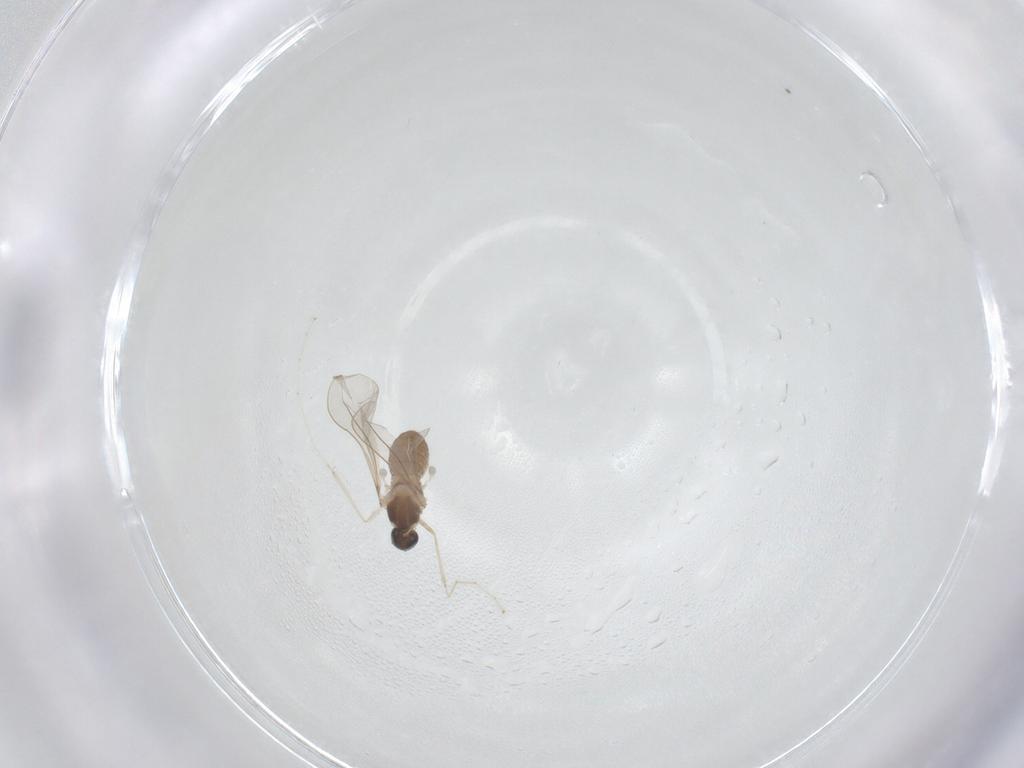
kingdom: Animalia
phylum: Arthropoda
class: Insecta
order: Diptera
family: Cecidomyiidae
